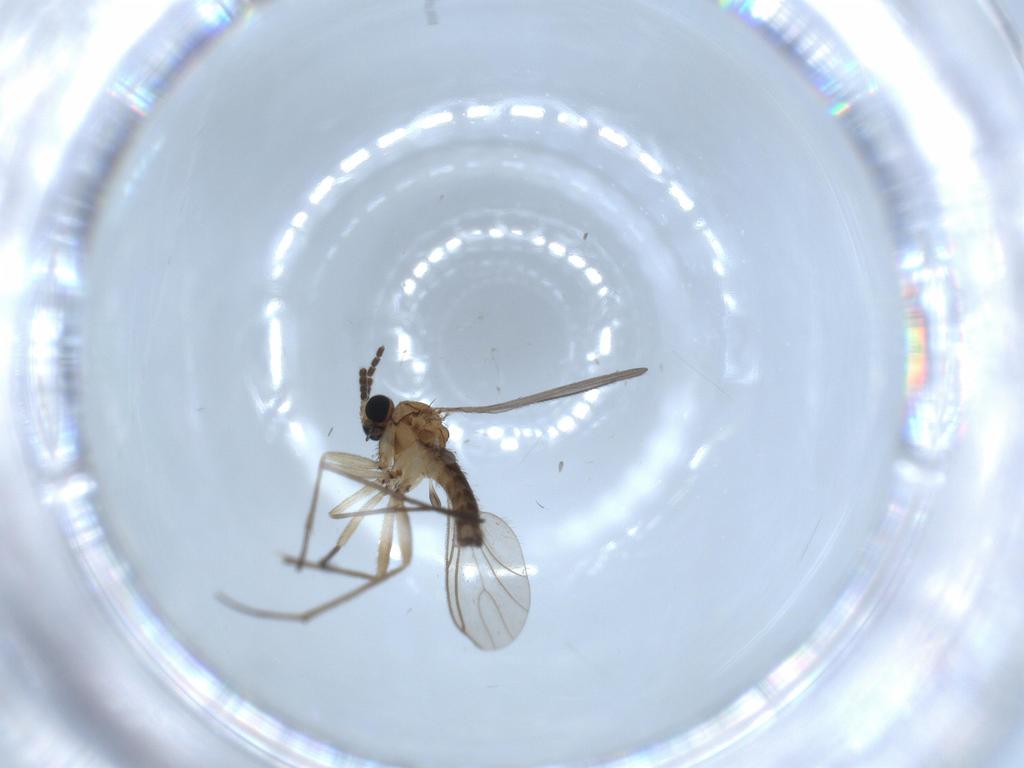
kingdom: Animalia
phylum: Arthropoda
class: Insecta
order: Diptera
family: Sciaridae
